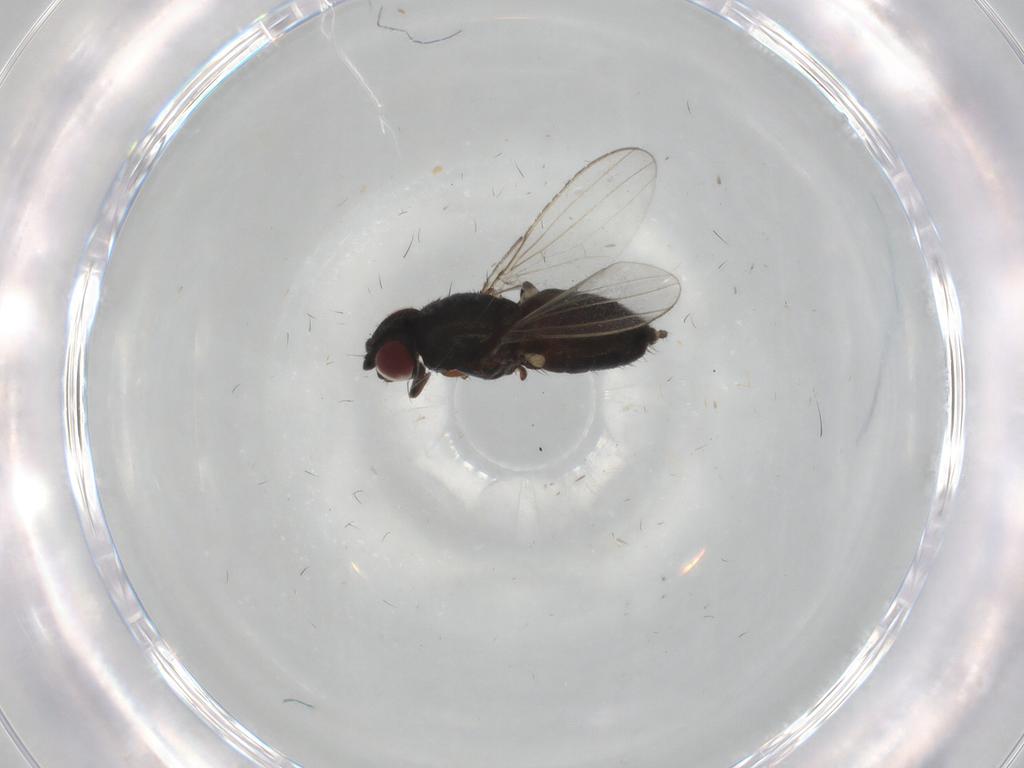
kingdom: Animalia
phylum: Arthropoda
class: Insecta
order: Diptera
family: Milichiidae
